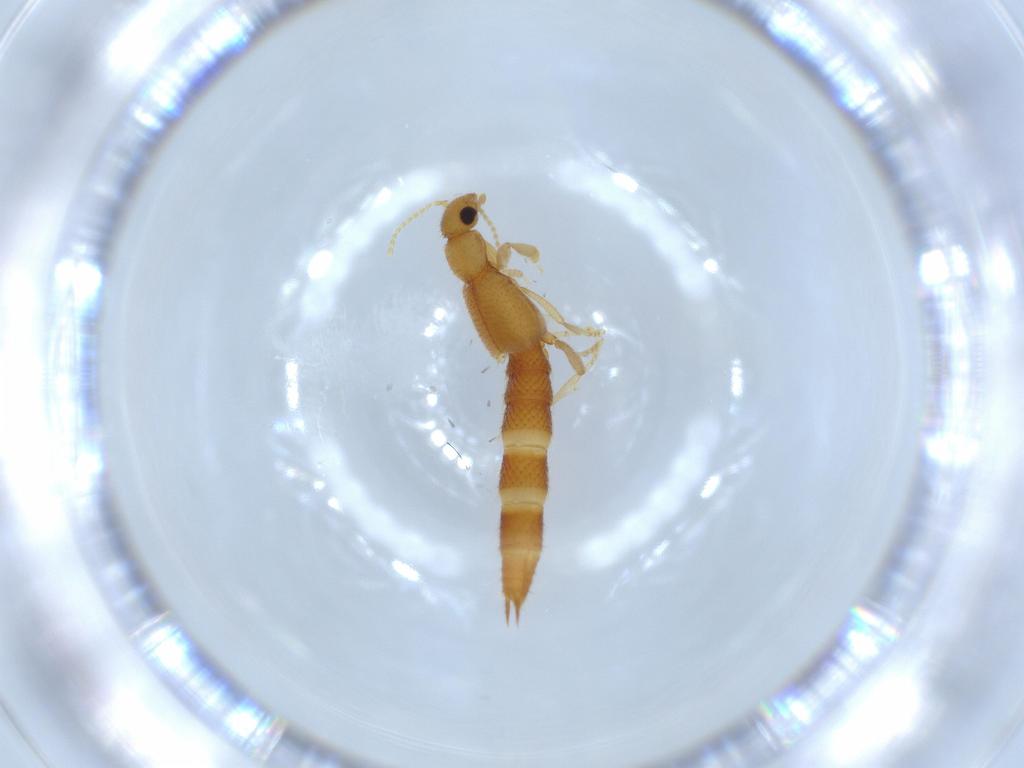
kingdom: Animalia
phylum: Arthropoda
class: Insecta
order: Coleoptera
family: Staphylinidae
